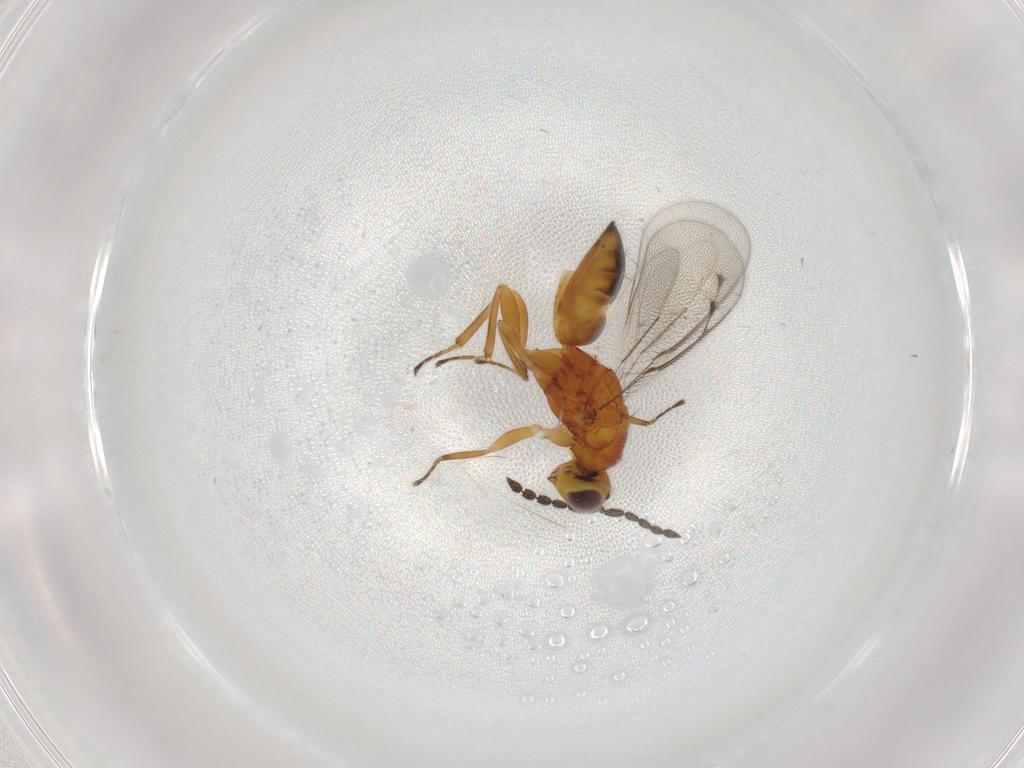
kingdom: Animalia
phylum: Arthropoda
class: Insecta
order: Hymenoptera
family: Eulophidae
